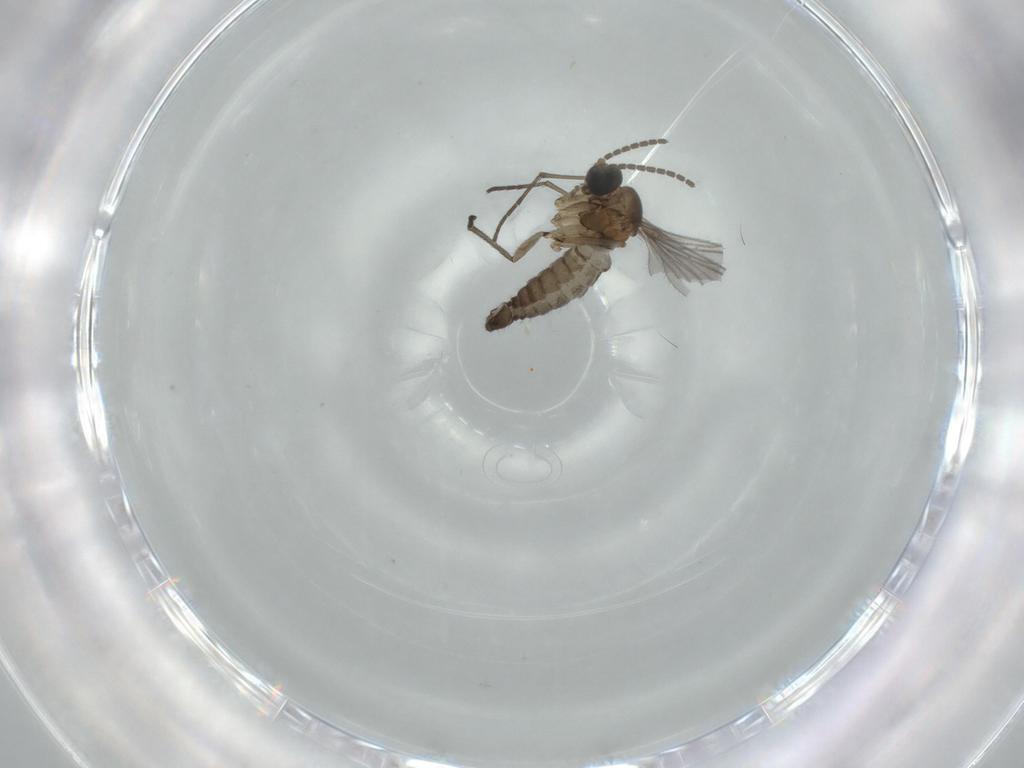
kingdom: Animalia
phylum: Arthropoda
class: Insecta
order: Diptera
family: Sciaridae
